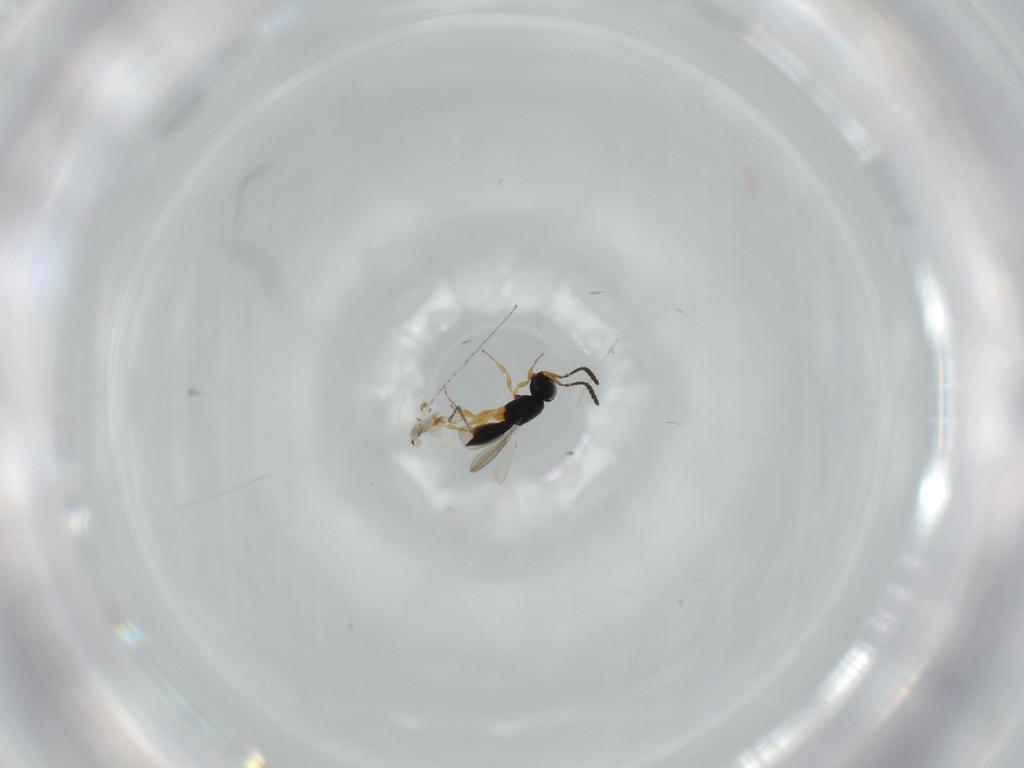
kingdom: Animalia
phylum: Arthropoda
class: Insecta
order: Hymenoptera
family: Scelionidae
